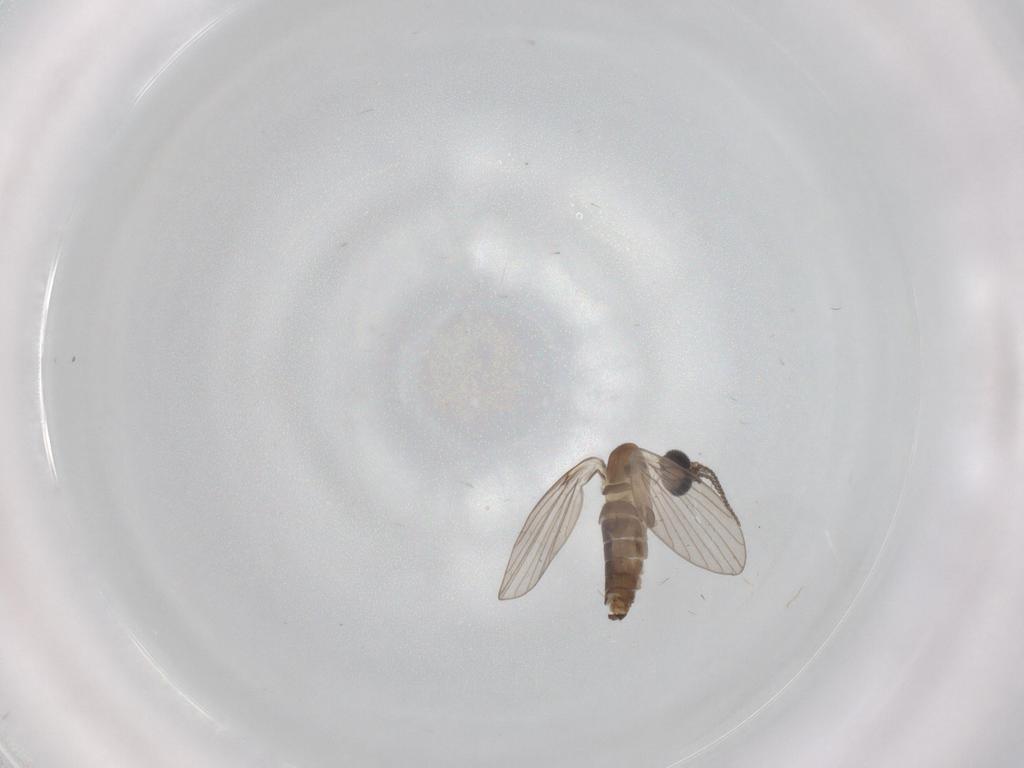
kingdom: Animalia
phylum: Arthropoda
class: Insecta
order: Diptera
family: Psychodidae
